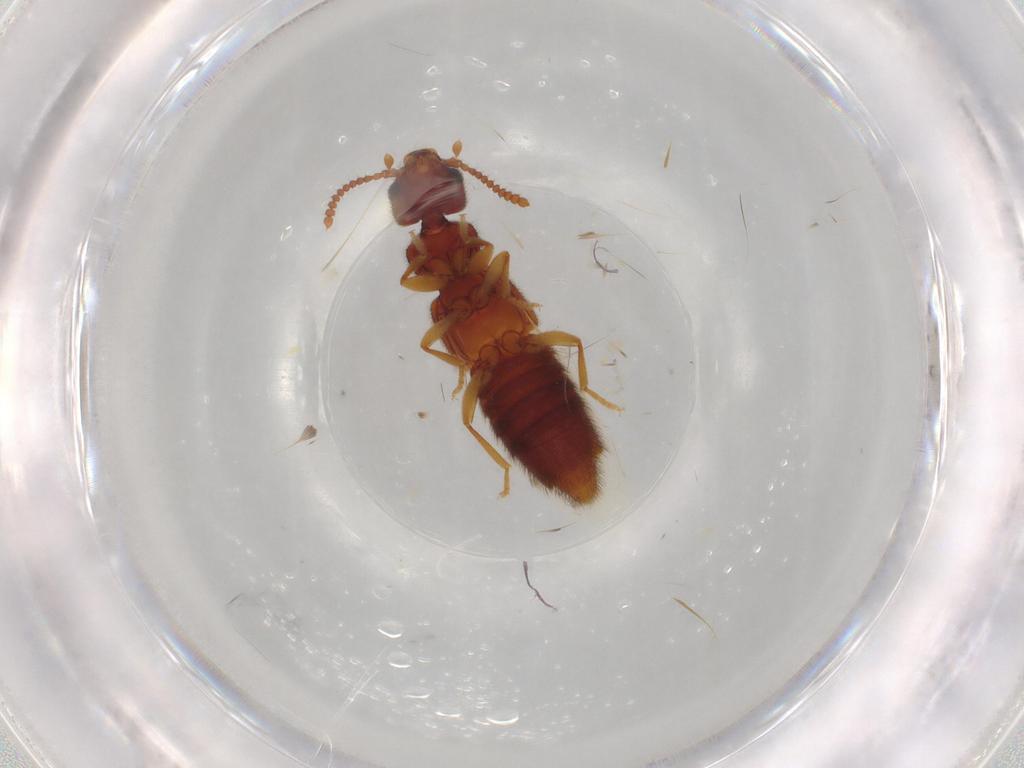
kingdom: Animalia
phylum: Arthropoda
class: Insecta
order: Coleoptera
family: Staphylinidae
